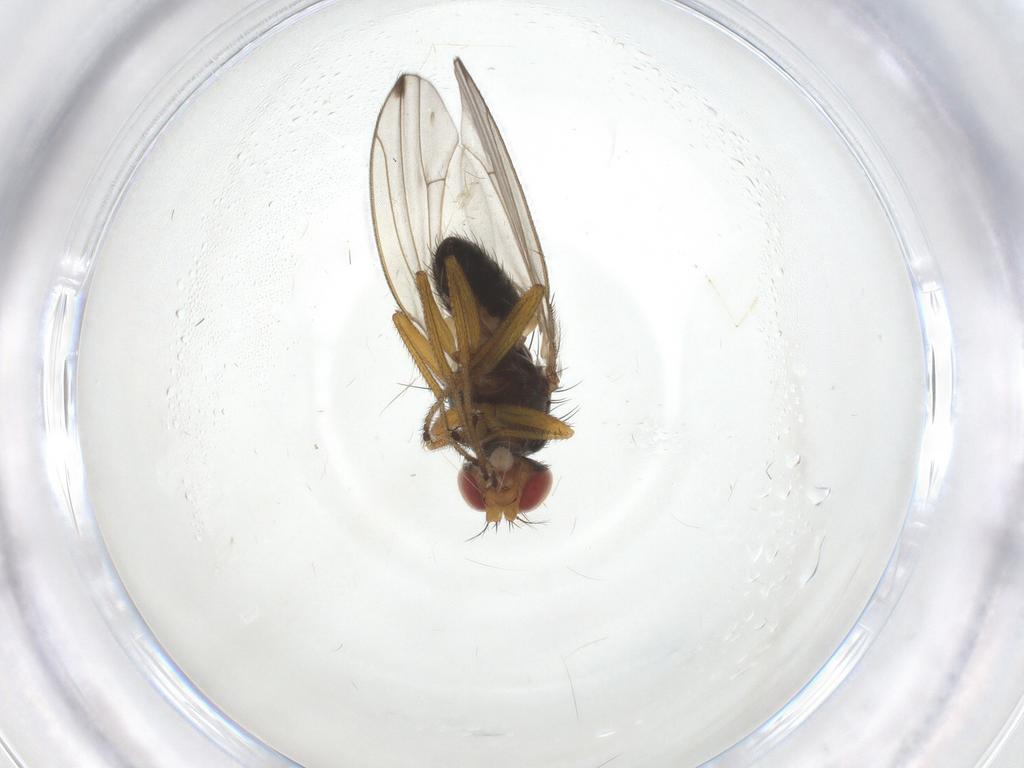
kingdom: Animalia
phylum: Arthropoda
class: Insecta
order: Diptera
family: Drosophilidae
